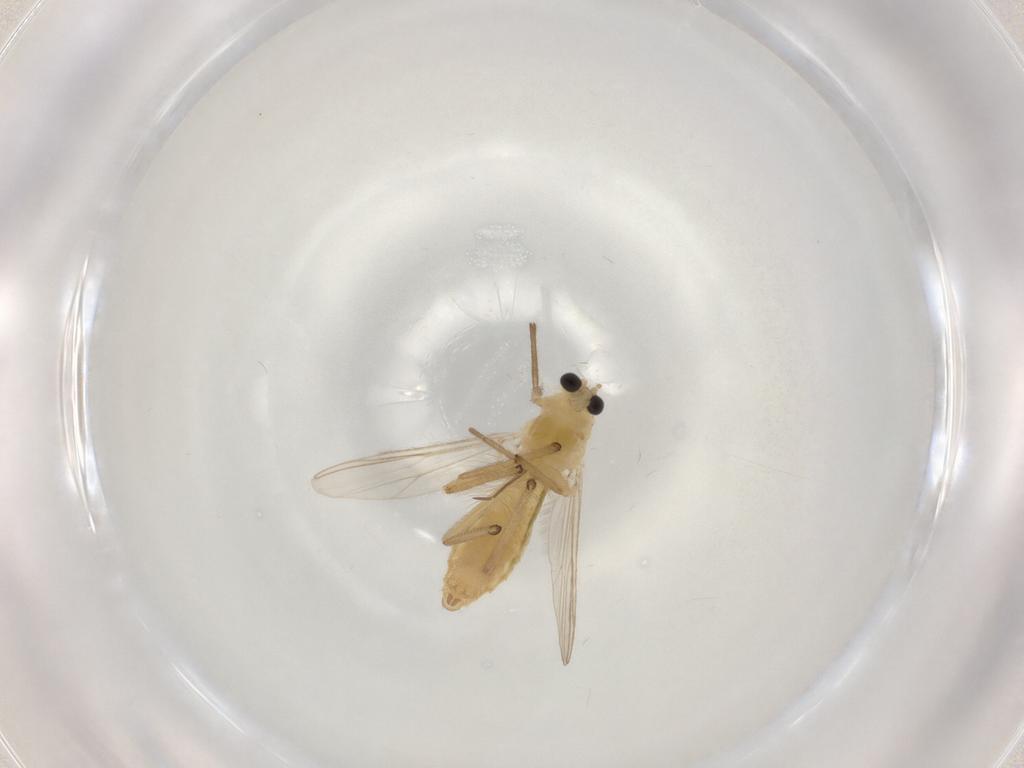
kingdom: Animalia
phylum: Arthropoda
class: Insecta
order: Diptera
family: Chironomidae
